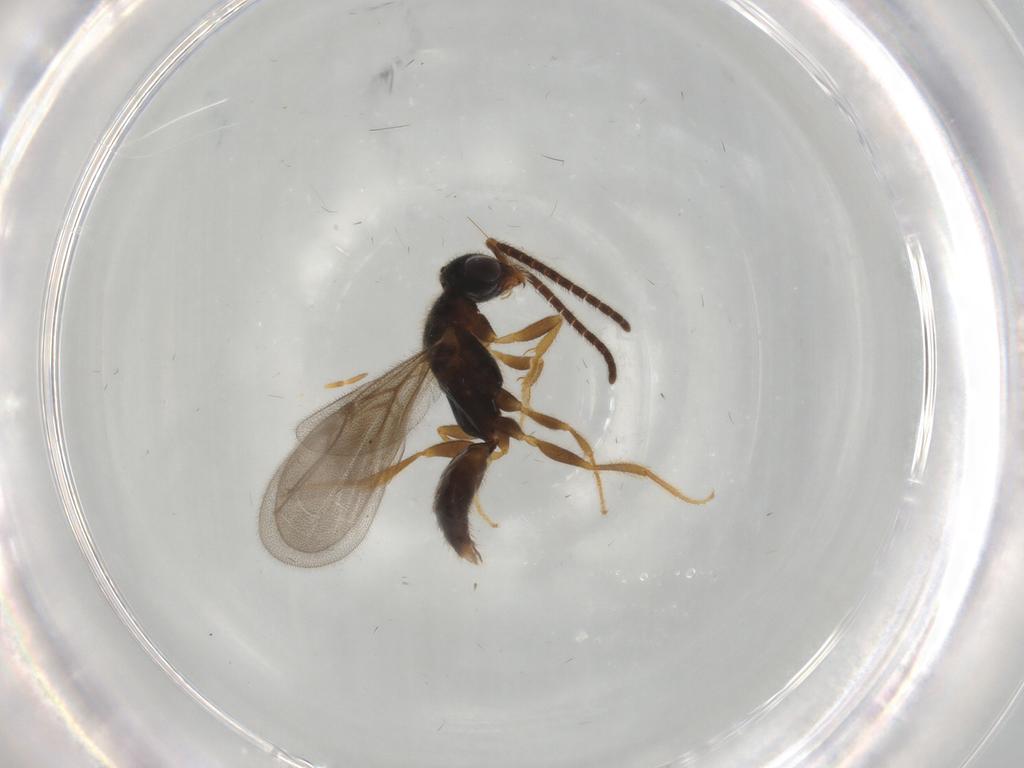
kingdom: Animalia
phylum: Arthropoda
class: Insecta
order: Hymenoptera
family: Bethylidae
